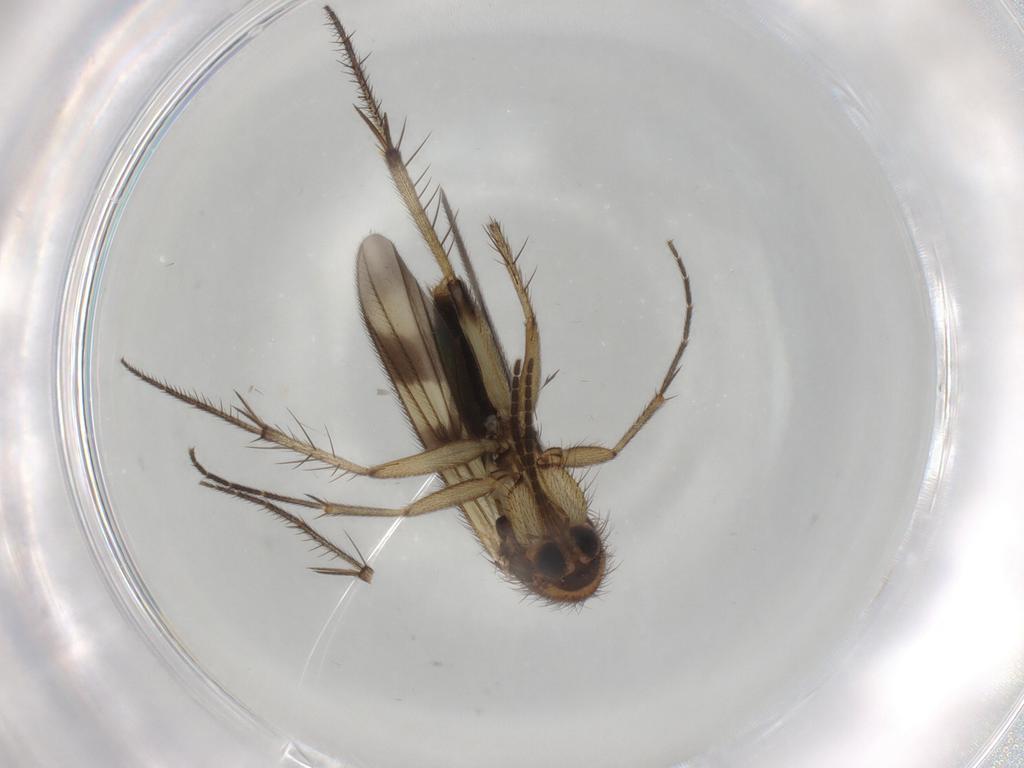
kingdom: Animalia
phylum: Arthropoda
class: Insecta
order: Diptera
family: Mycetophilidae
